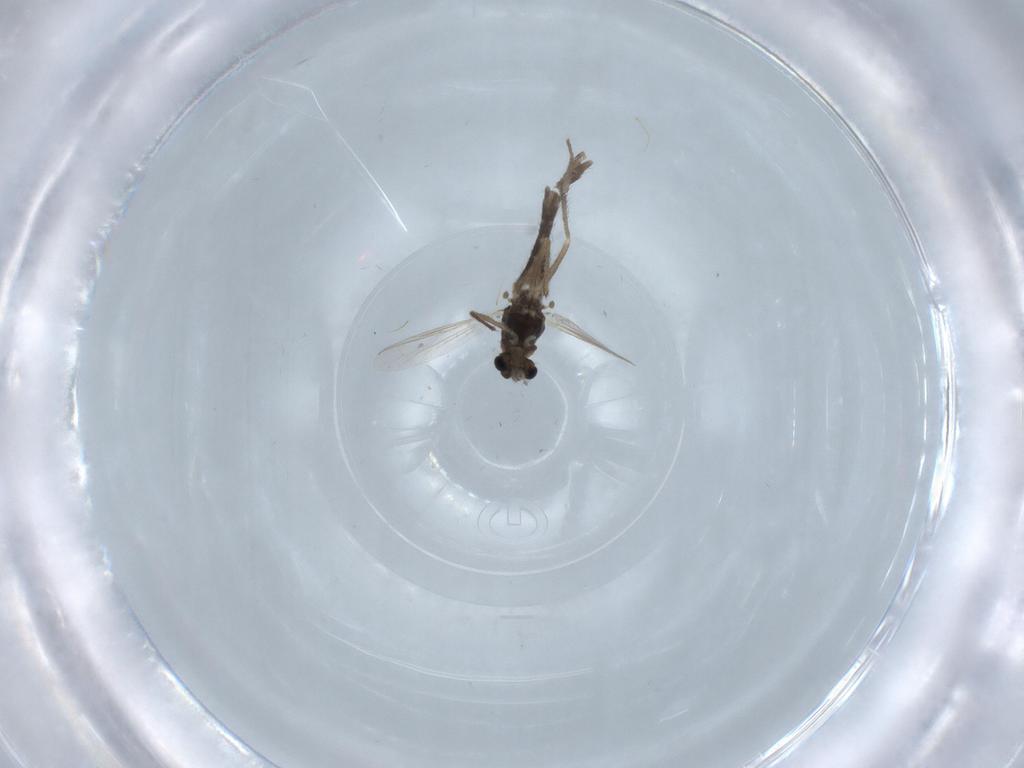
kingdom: Animalia
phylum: Arthropoda
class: Insecta
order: Diptera
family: Chironomidae
